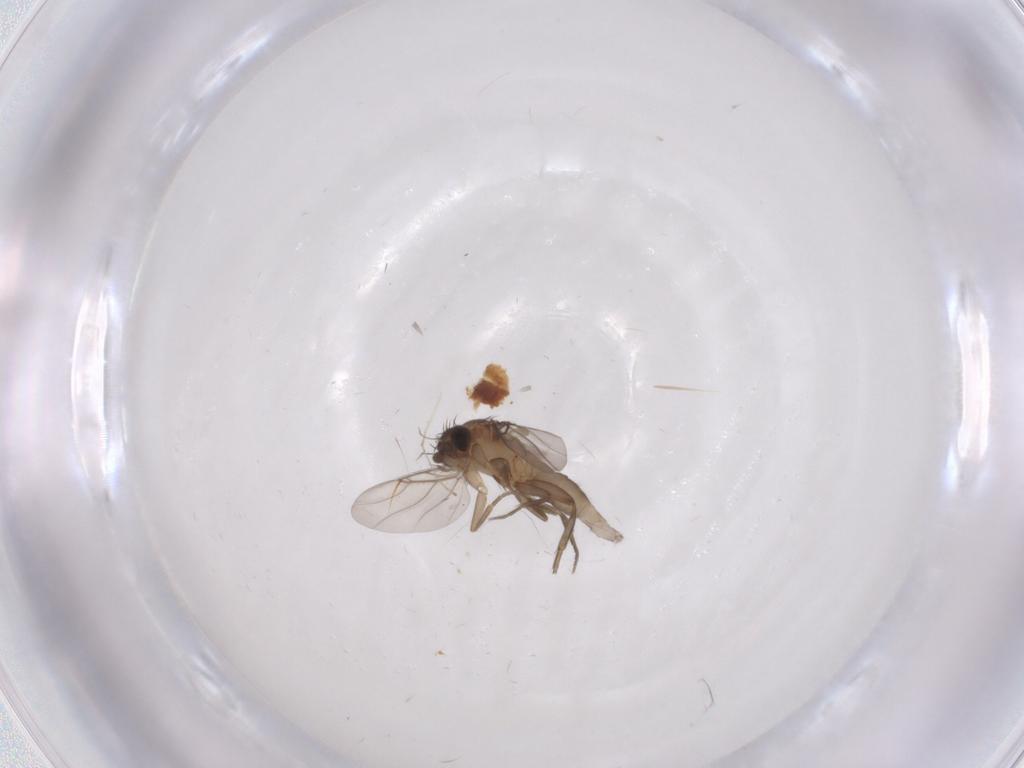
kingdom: Animalia
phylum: Arthropoda
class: Insecta
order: Diptera
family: Phoridae
